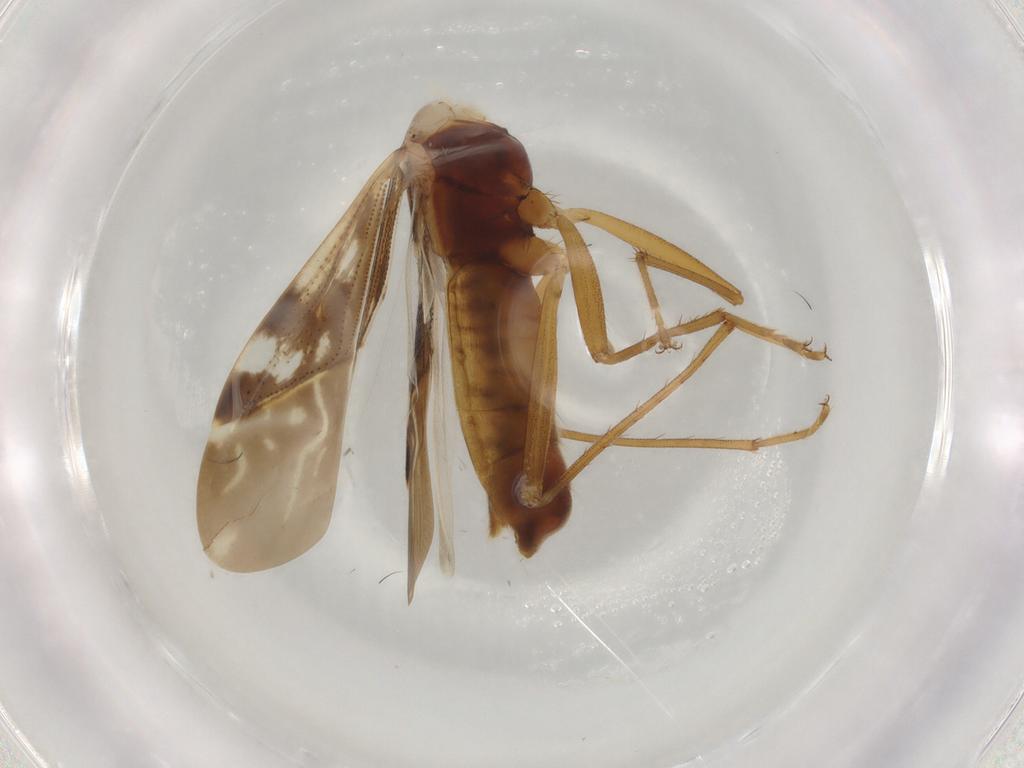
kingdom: Animalia
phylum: Arthropoda
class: Insecta
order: Hemiptera
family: Rhyparochromidae
